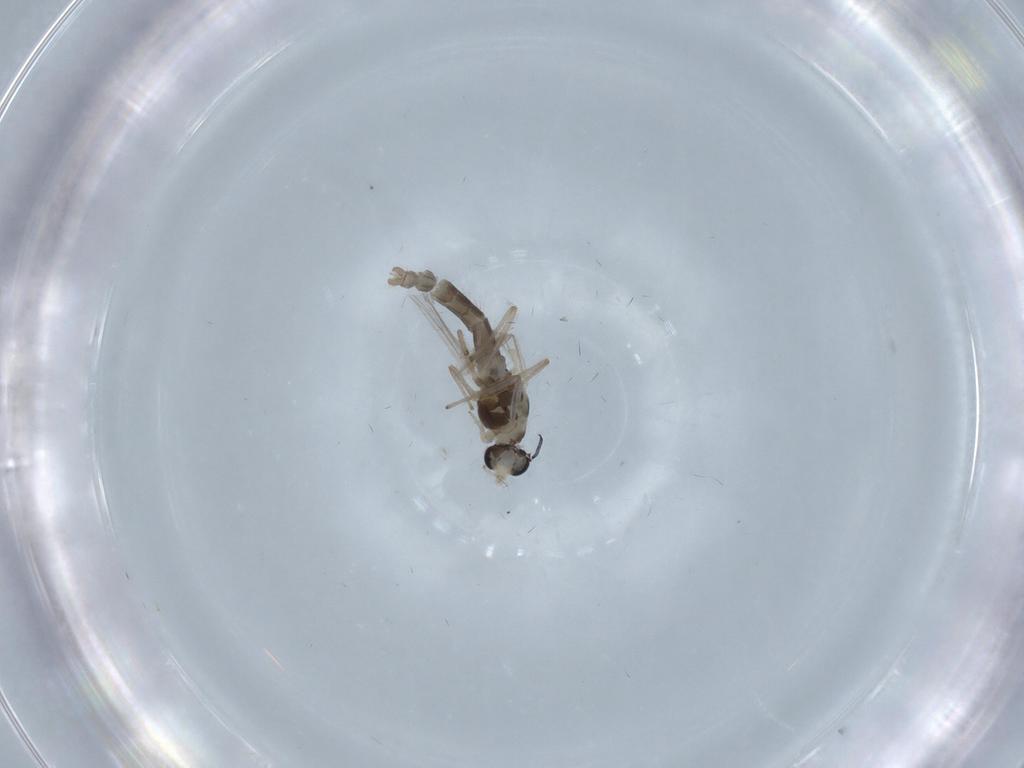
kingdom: Animalia
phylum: Arthropoda
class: Insecta
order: Diptera
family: Chironomidae
